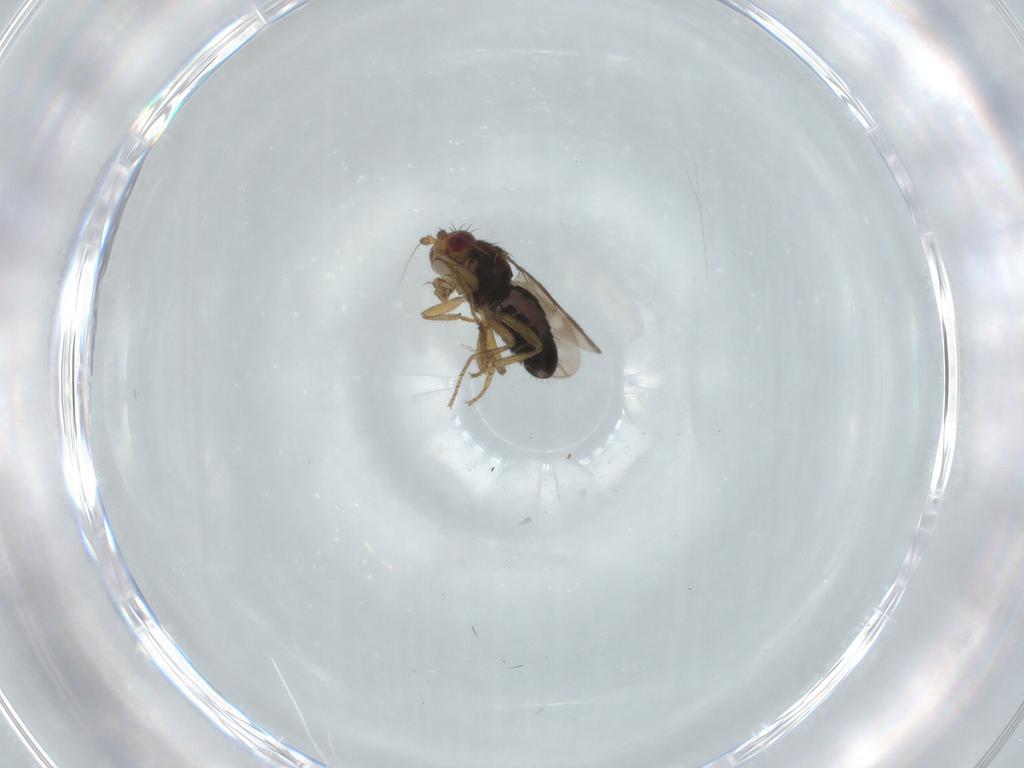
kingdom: Animalia
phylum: Arthropoda
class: Insecta
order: Diptera
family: Sphaeroceridae
